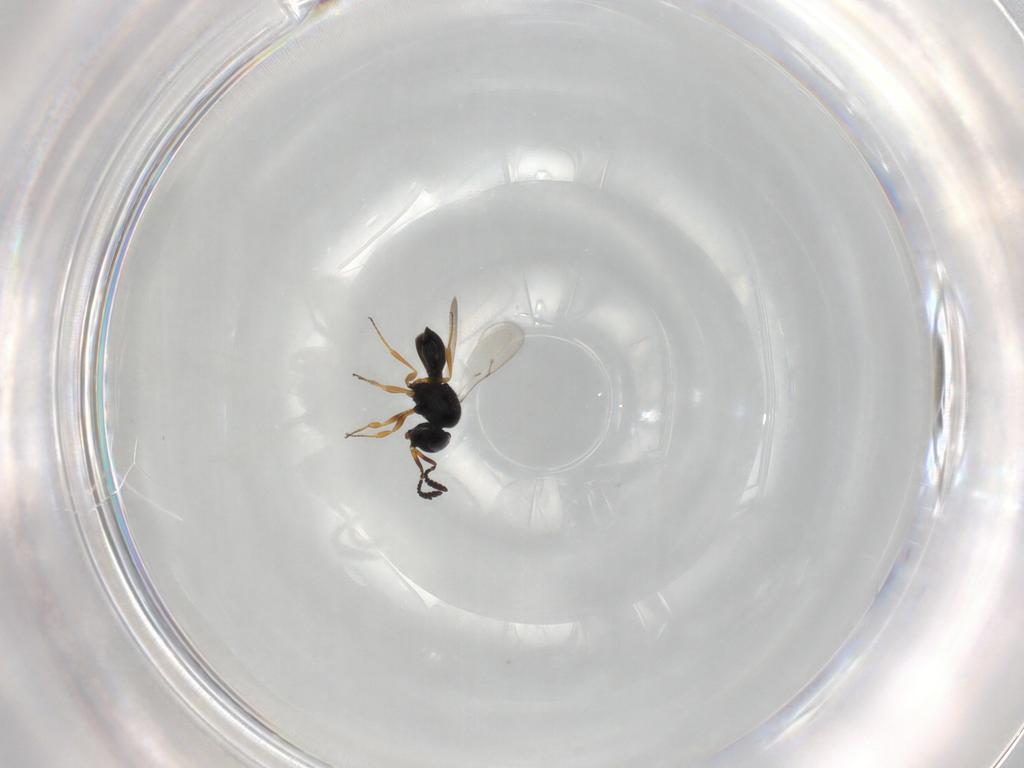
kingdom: Animalia
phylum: Arthropoda
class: Insecta
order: Hymenoptera
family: Scelionidae
